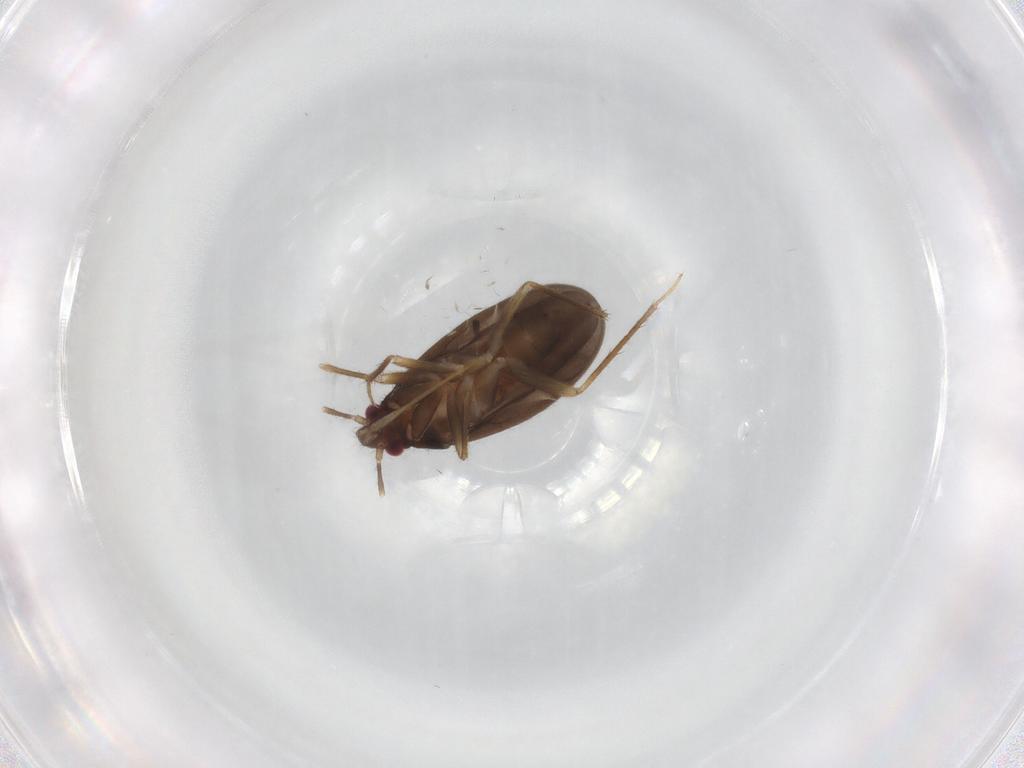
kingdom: Animalia
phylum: Arthropoda
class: Insecta
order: Hemiptera
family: Ceratocombidae
